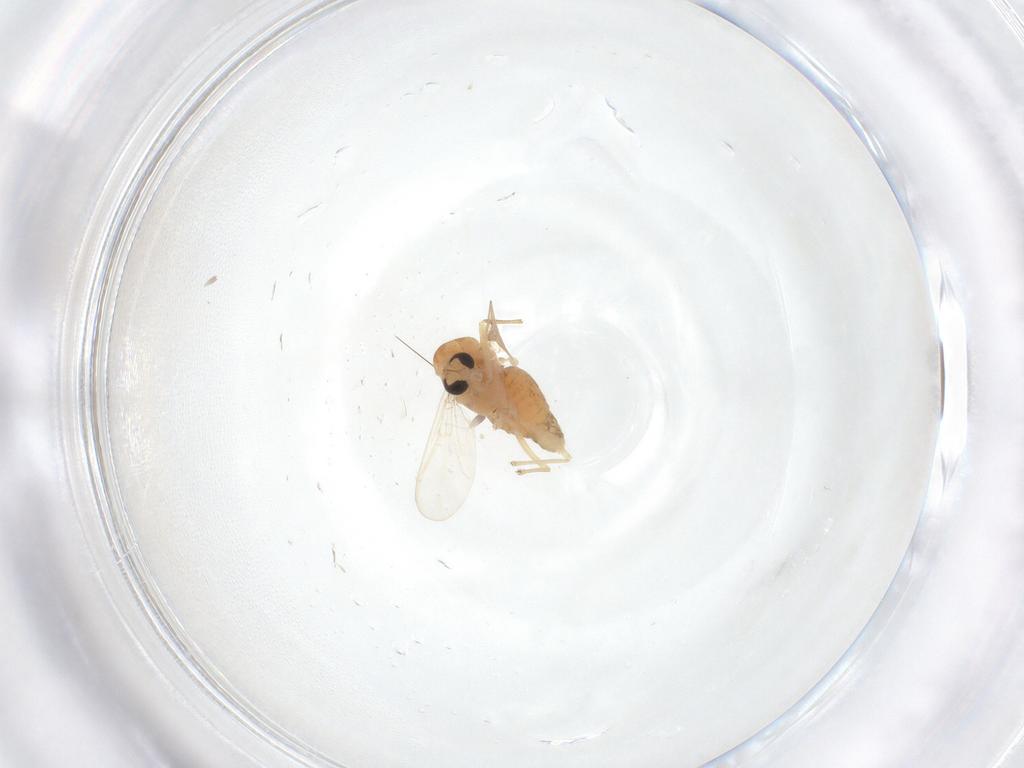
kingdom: Animalia
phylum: Arthropoda
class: Insecta
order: Diptera
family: Chironomidae
